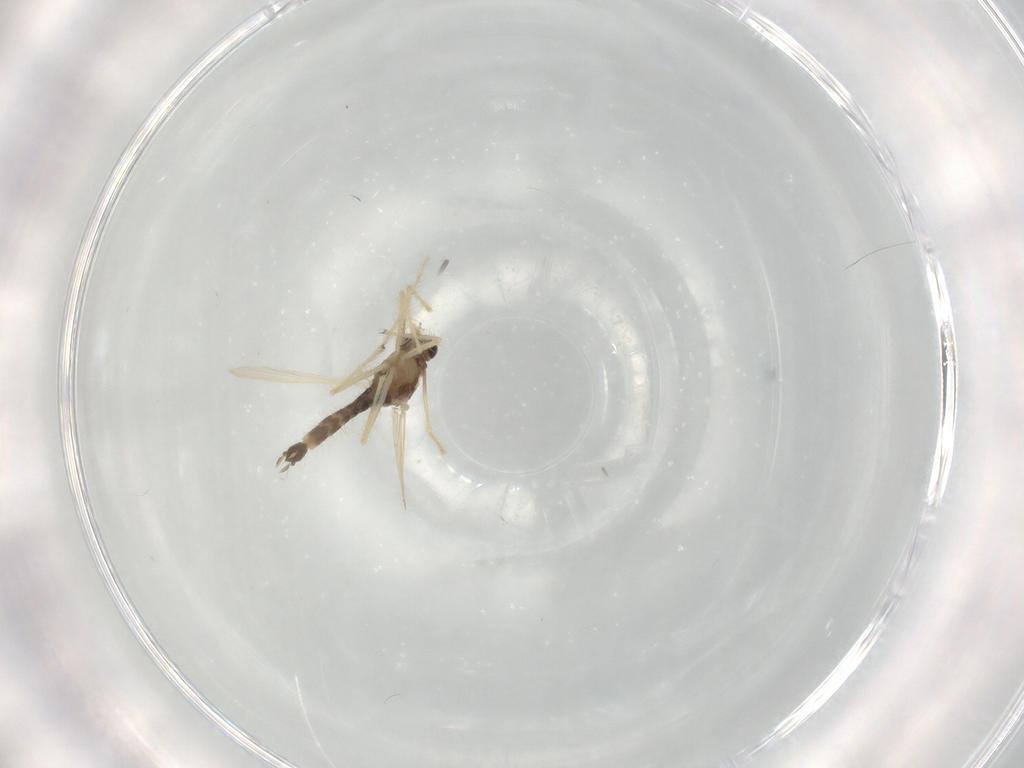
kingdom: Animalia
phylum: Arthropoda
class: Insecta
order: Diptera
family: Chironomidae
